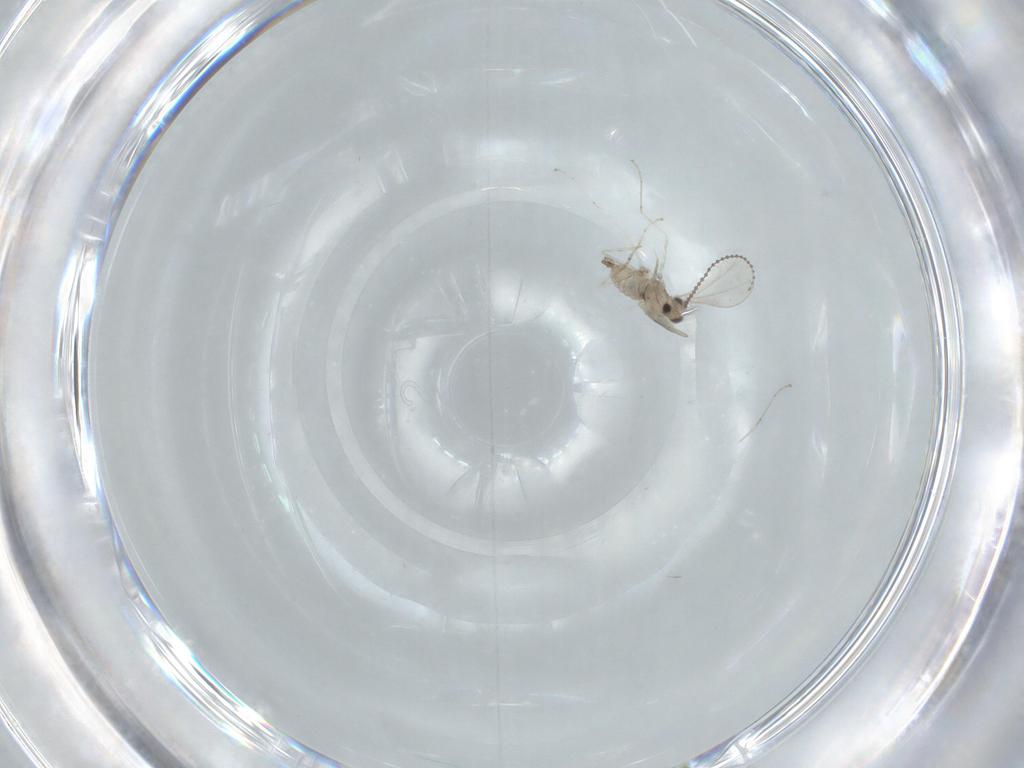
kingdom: Animalia
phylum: Arthropoda
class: Insecta
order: Diptera
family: Cecidomyiidae
